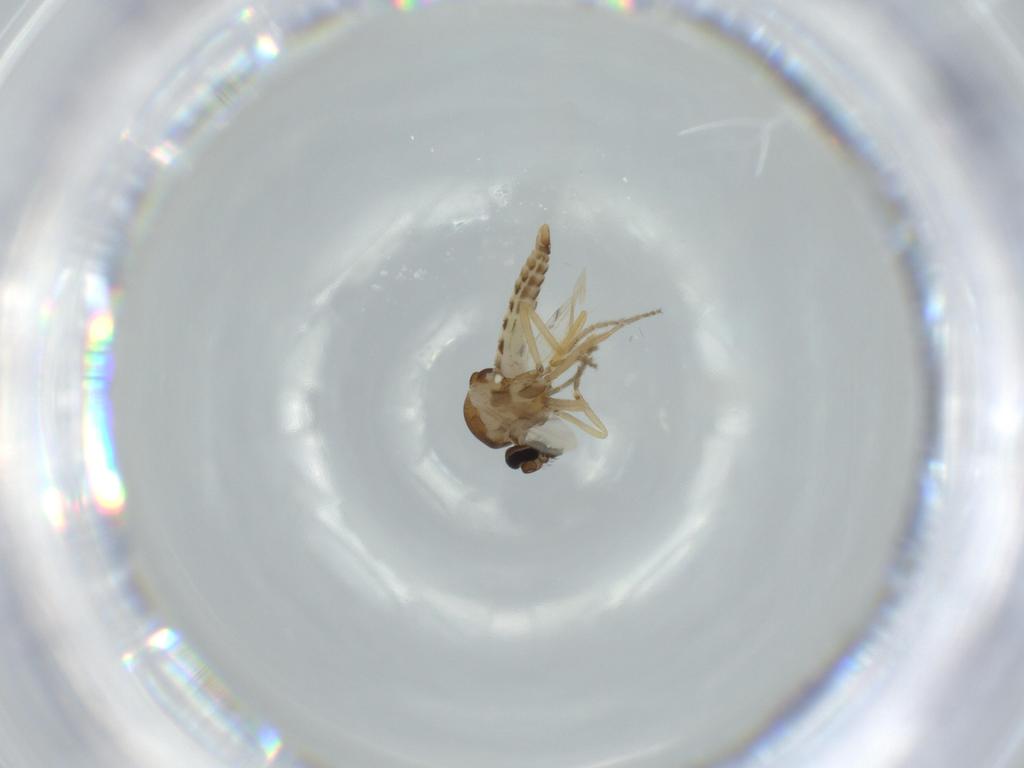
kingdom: Animalia
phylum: Arthropoda
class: Insecta
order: Diptera
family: Ceratopogonidae
